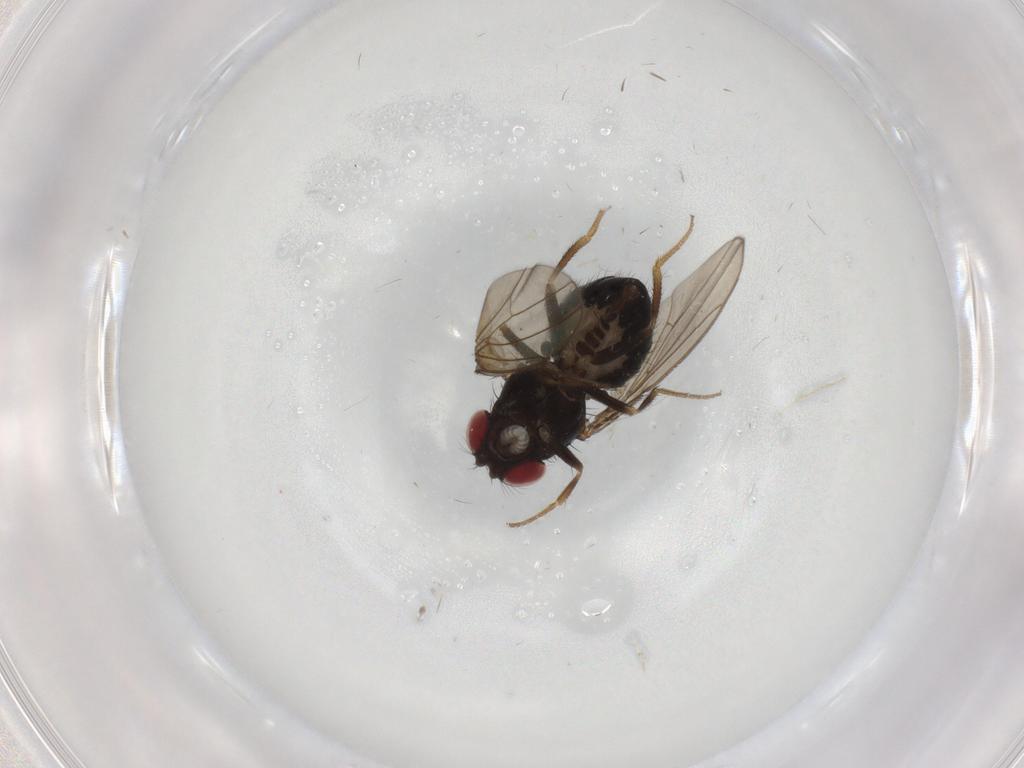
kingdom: Animalia
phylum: Arthropoda
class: Insecta
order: Diptera
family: Drosophilidae
